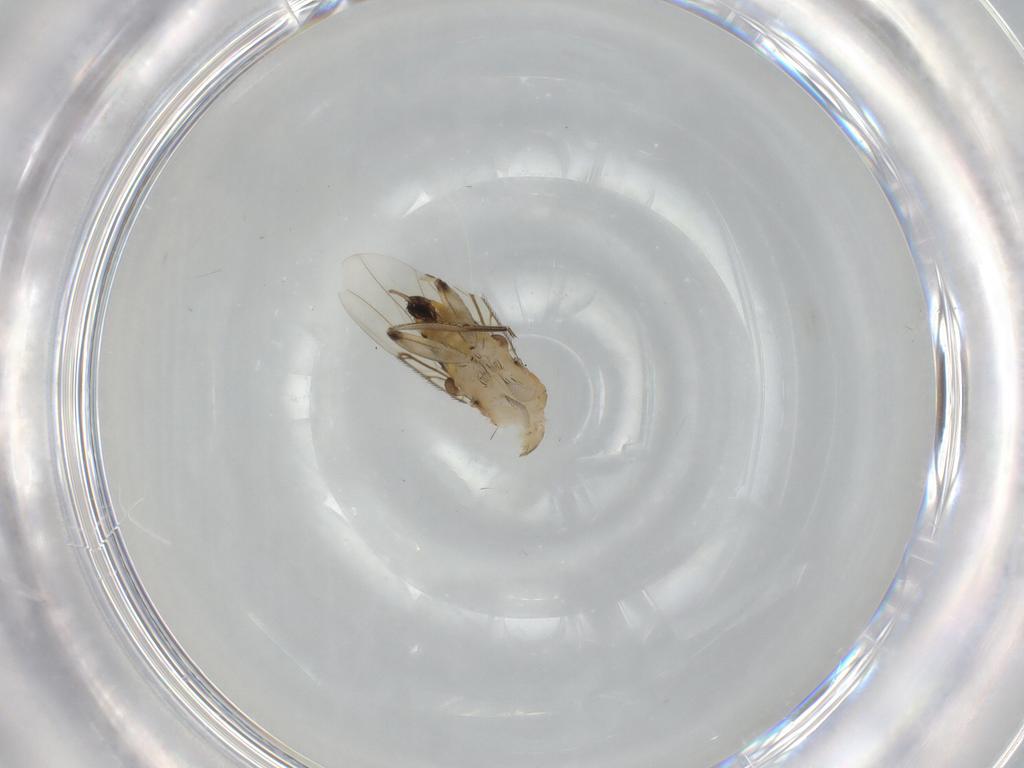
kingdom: Animalia
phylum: Arthropoda
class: Insecta
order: Diptera
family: Phoridae
